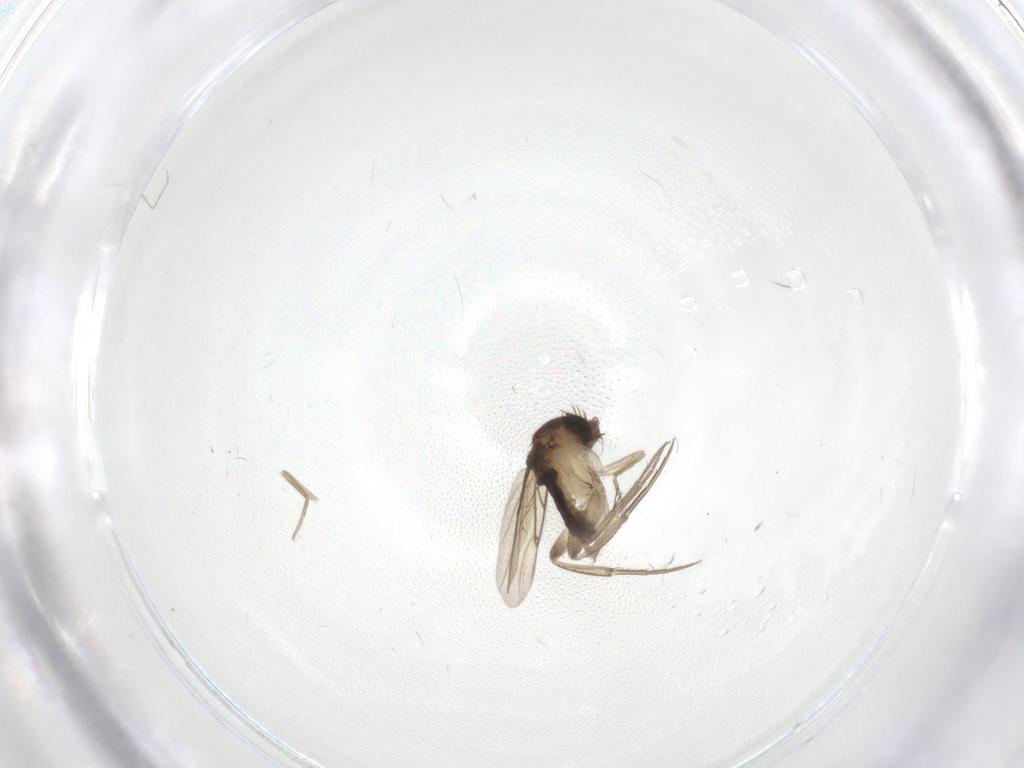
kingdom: Animalia
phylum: Arthropoda
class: Insecta
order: Diptera
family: Phoridae
